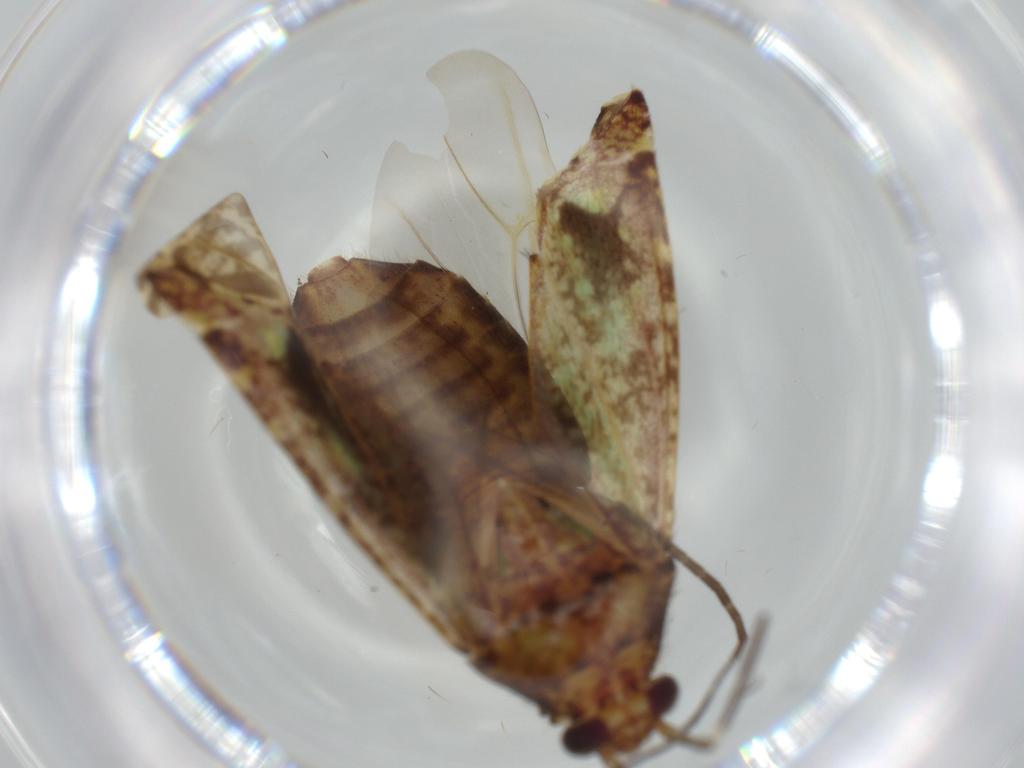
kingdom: Animalia
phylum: Arthropoda
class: Insecta
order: Hemiptera
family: Miridae
